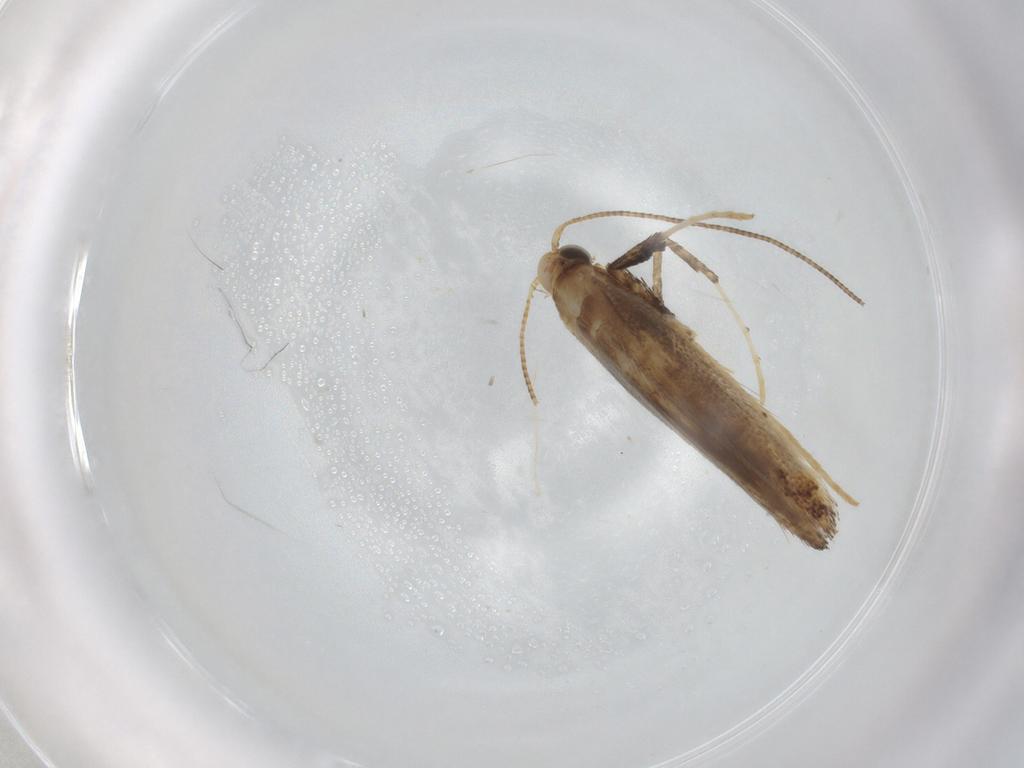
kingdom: Animalia
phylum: Arthropoda
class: Insecta
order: Lepidoptera
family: Gracillariidae
